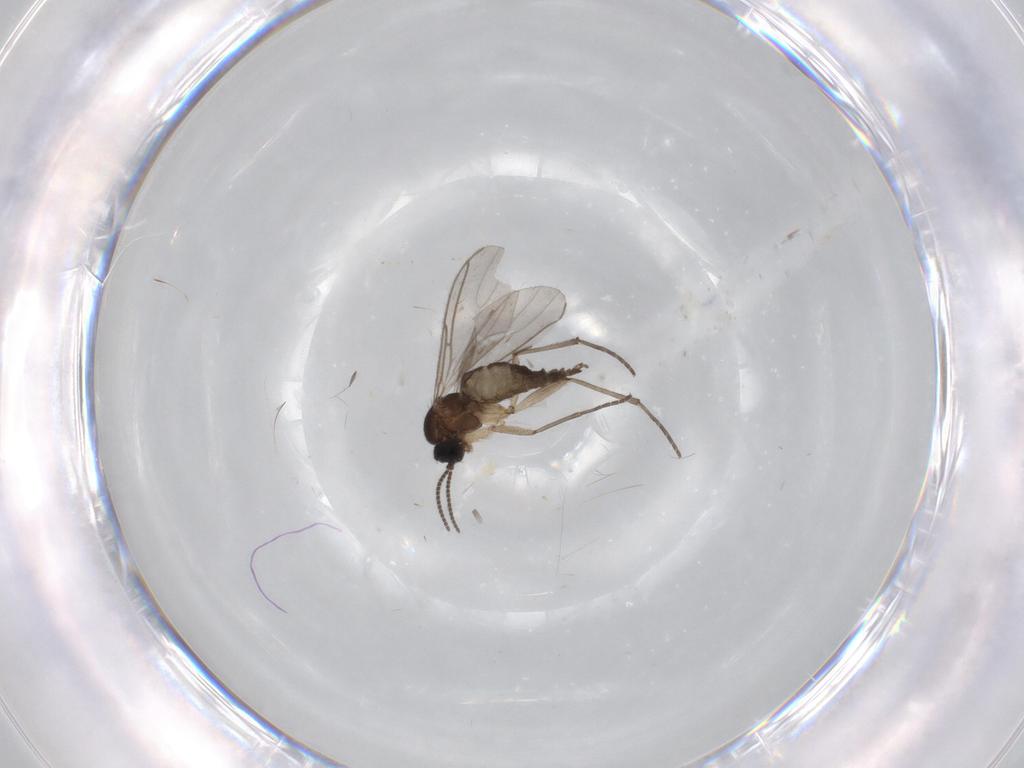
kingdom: Animalia
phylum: Arthropoda
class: Insecta
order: Diptera
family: Sciaridae
